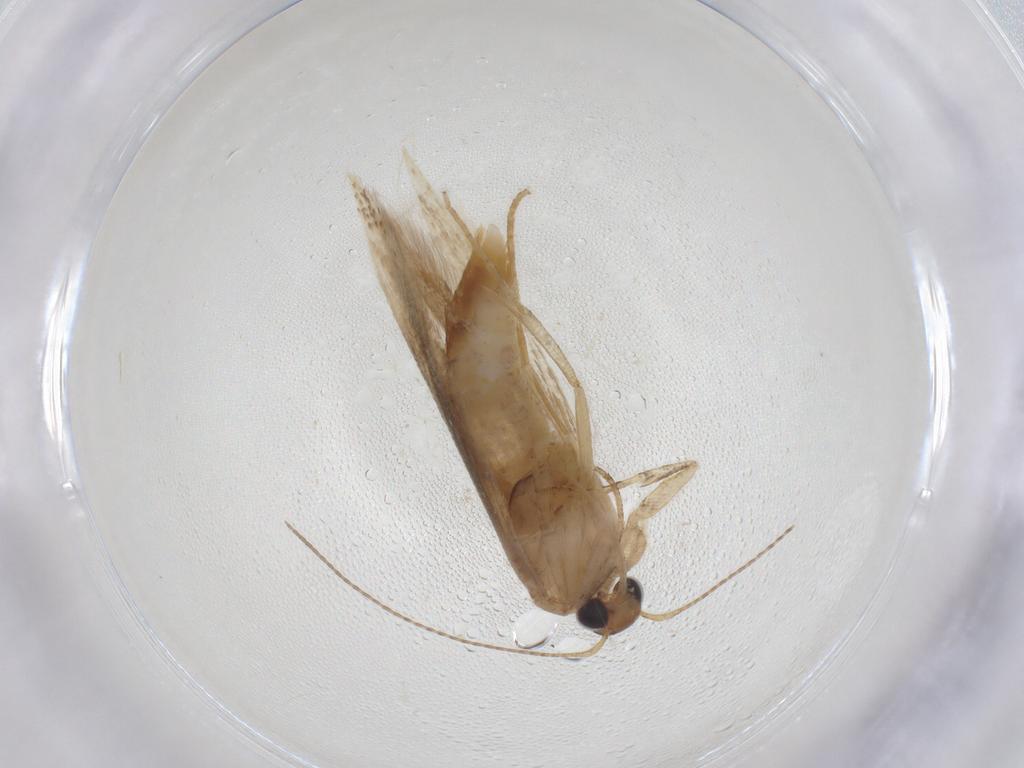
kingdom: Animalia
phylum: Arthropoda
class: Insecta
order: Lepidoptera
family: Gelechiidae
